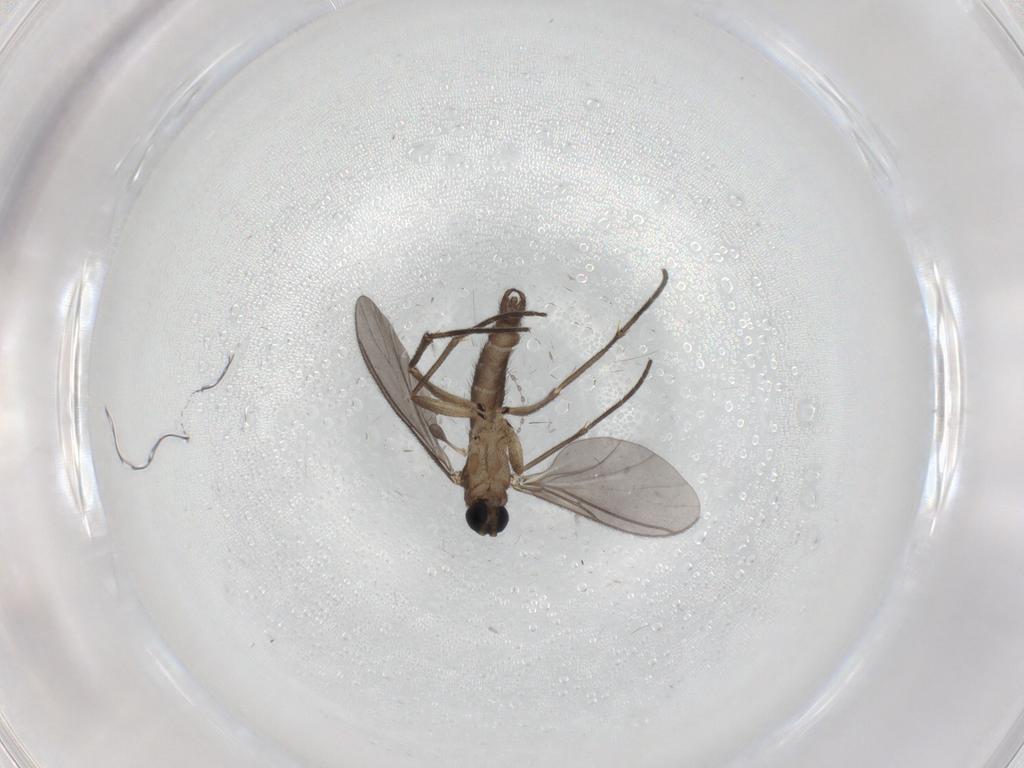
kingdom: Animalia
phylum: Arthropoda
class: Insecta
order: Diptera
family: Sciaridae
